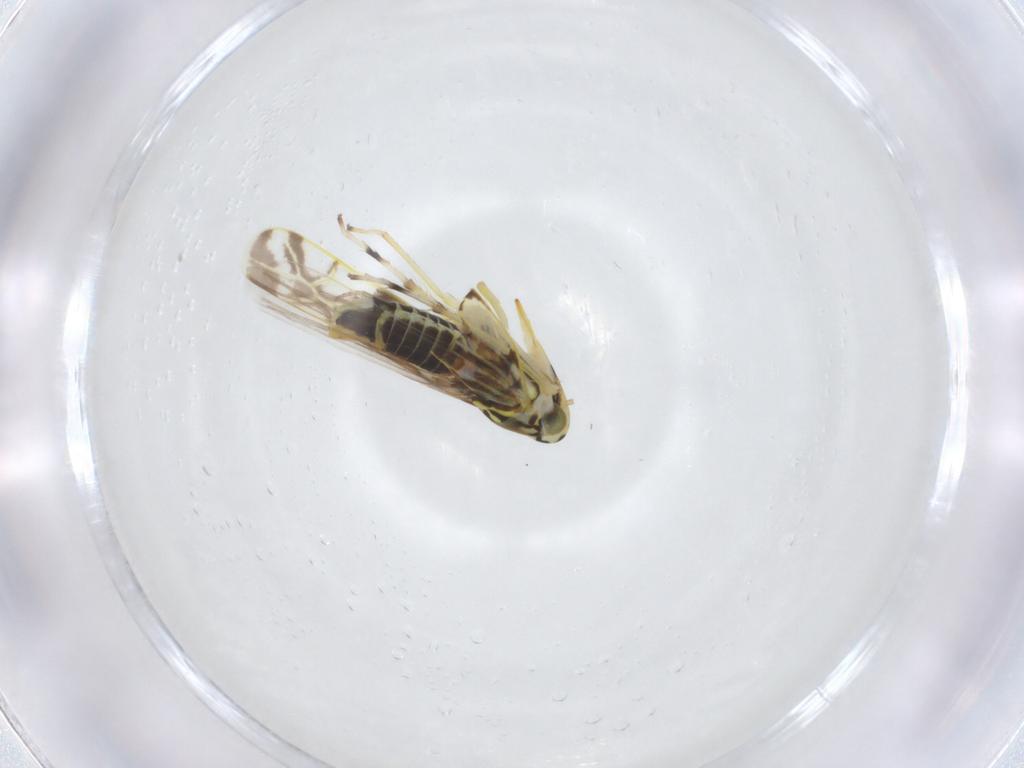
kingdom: Animalia
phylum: Arthropoda
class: Insecta
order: Hemiptera
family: Cicadellidae
